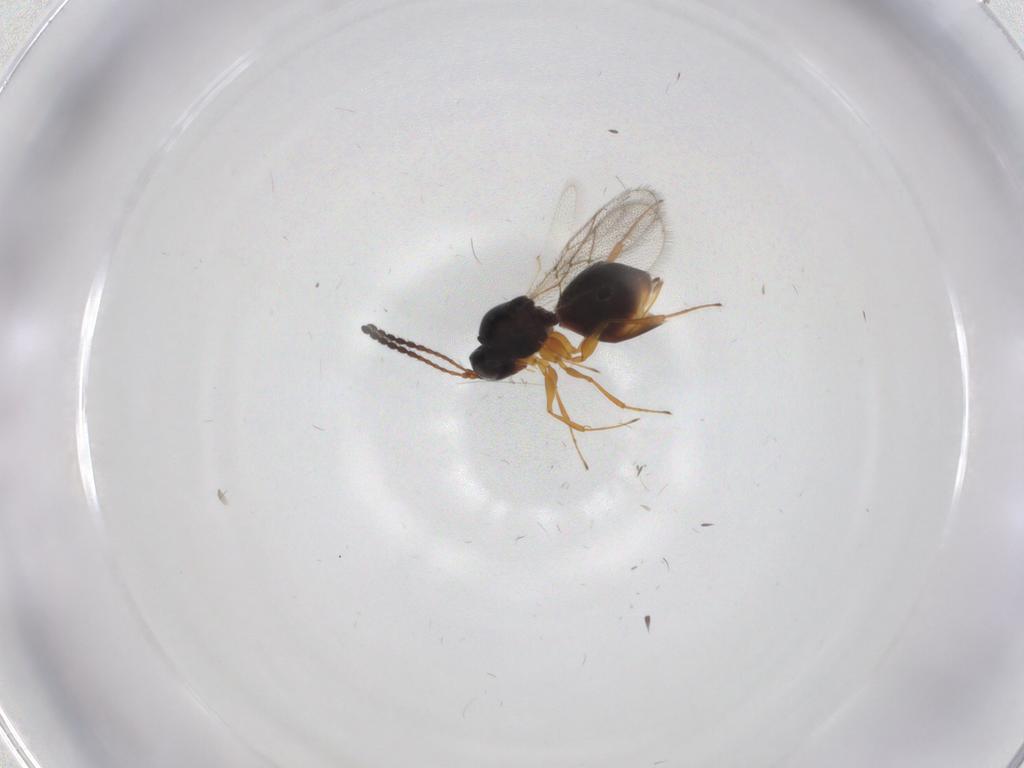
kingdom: Animalia
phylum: Arthropoda
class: Insecta
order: Hymenoptera
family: Figitidae
